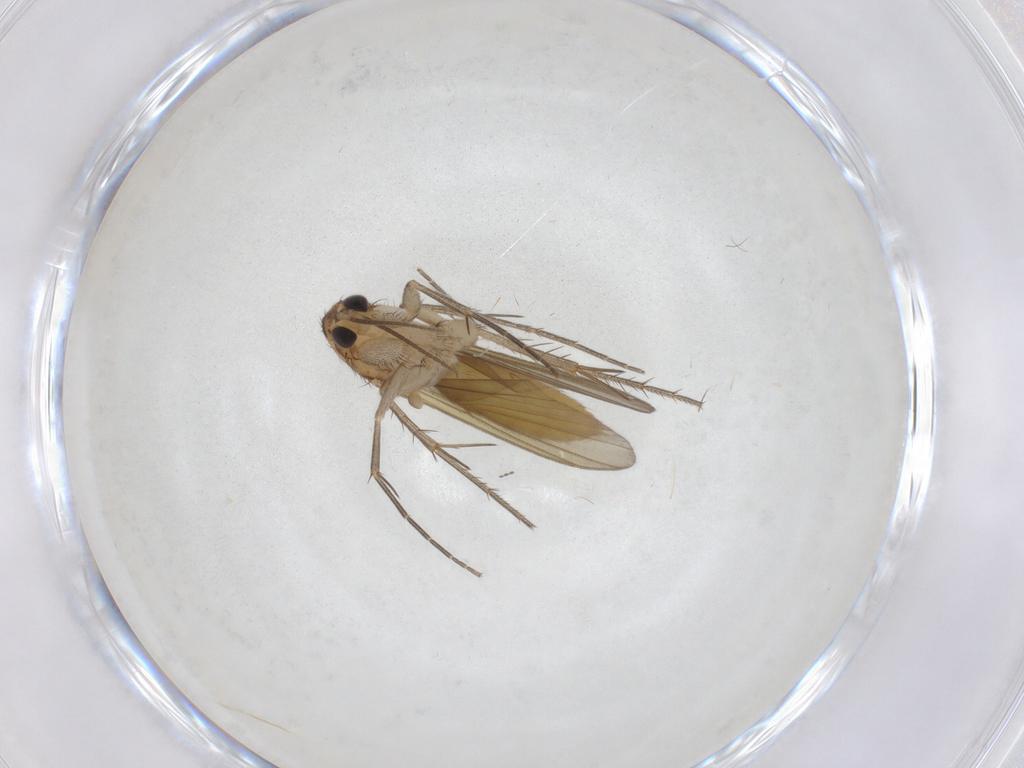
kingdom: Animalia
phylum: Arthropoda
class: Insecta
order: Diptera
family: Mycetophilidae
